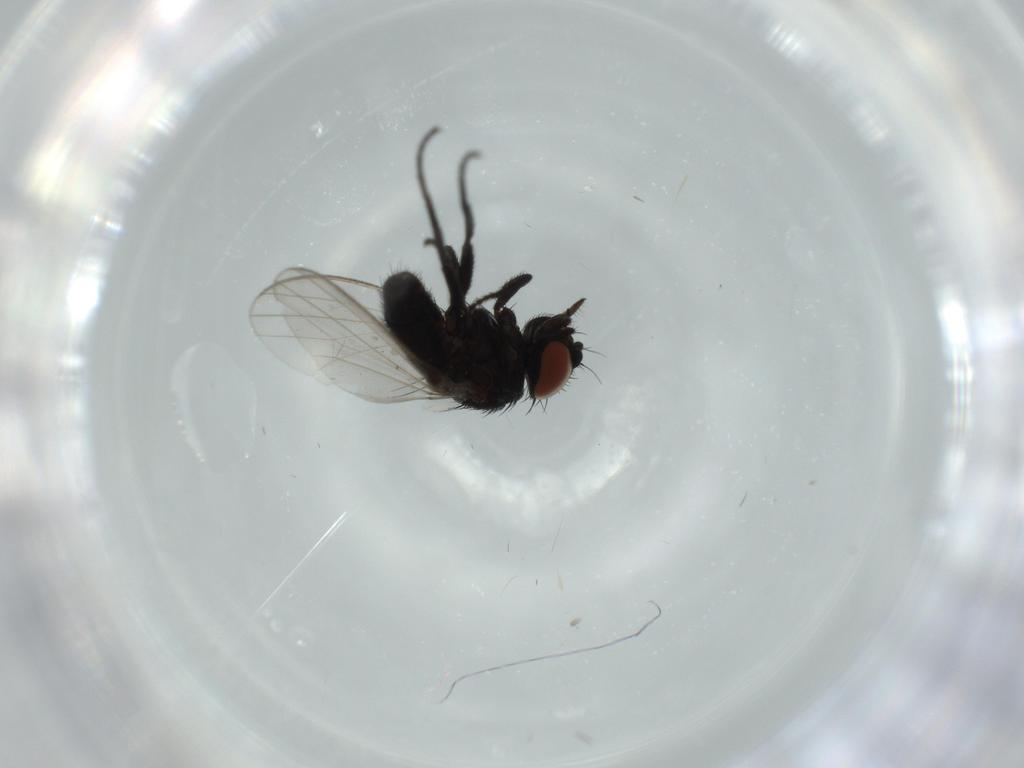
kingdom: Animalia
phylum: Arthropoda
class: Insecta
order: Diptera
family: Milichiidae
